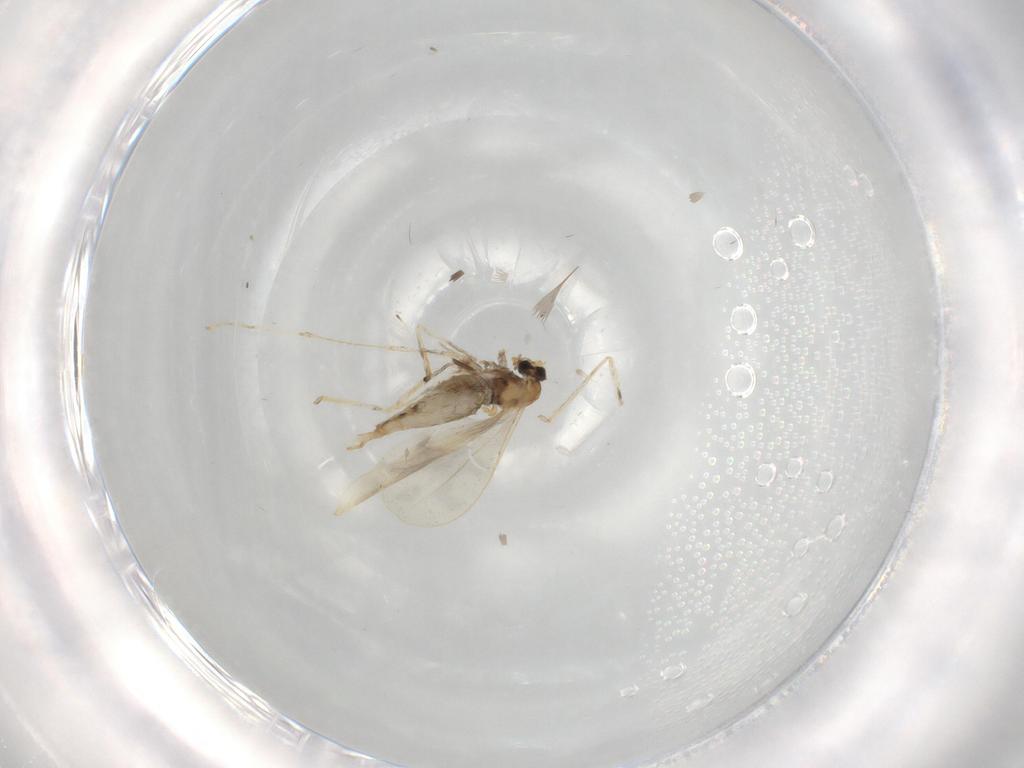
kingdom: Animalia
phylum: Arthropoda
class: Insecta
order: Diptera
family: Cecidomyiidae
